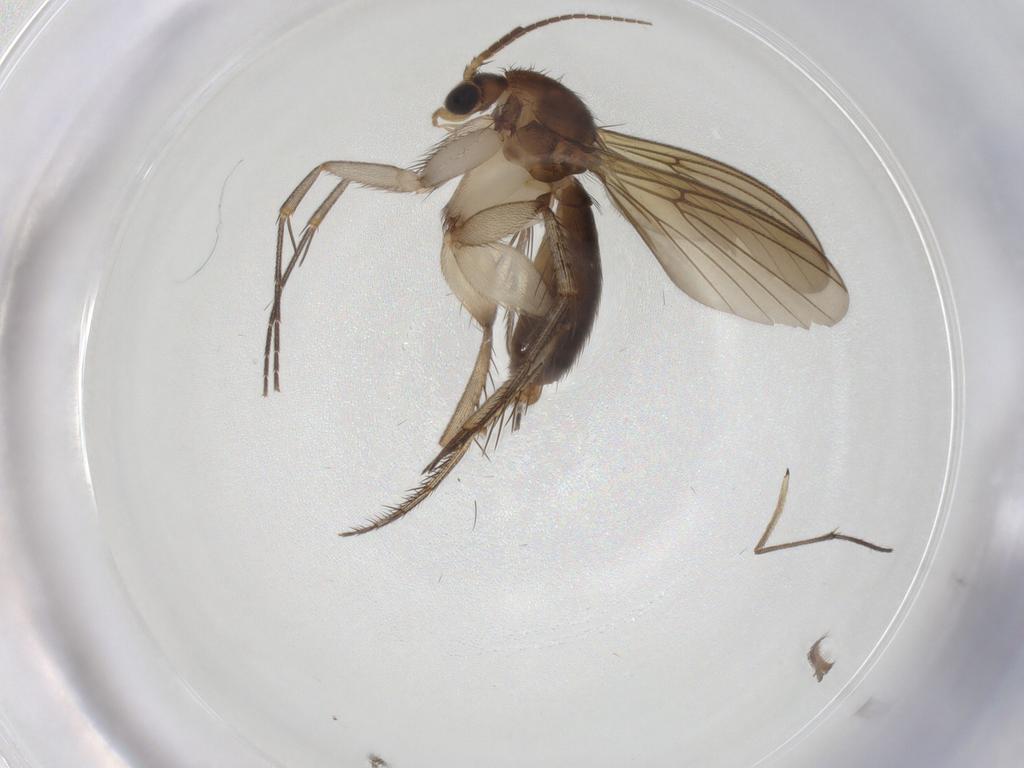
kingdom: Animalia
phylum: Arthropoda
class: Insecta
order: Diptera
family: Mycetophilidae
